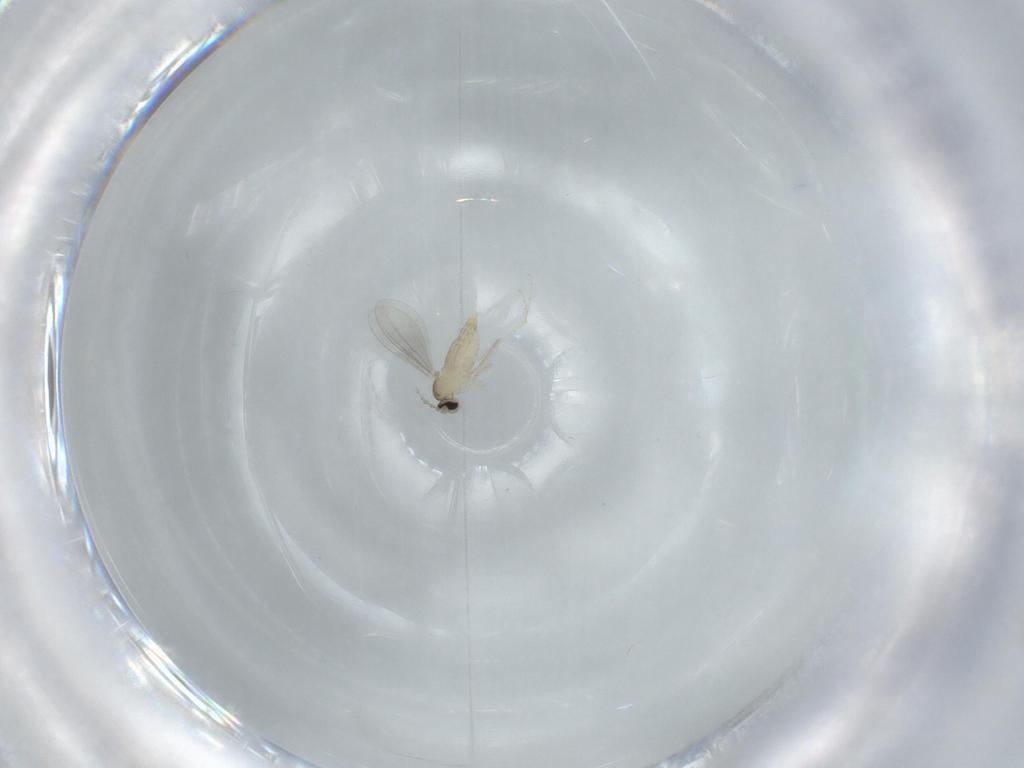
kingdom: Animalia
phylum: Arthropoda
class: Insecta
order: Diptera
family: Cecidomyiidae
